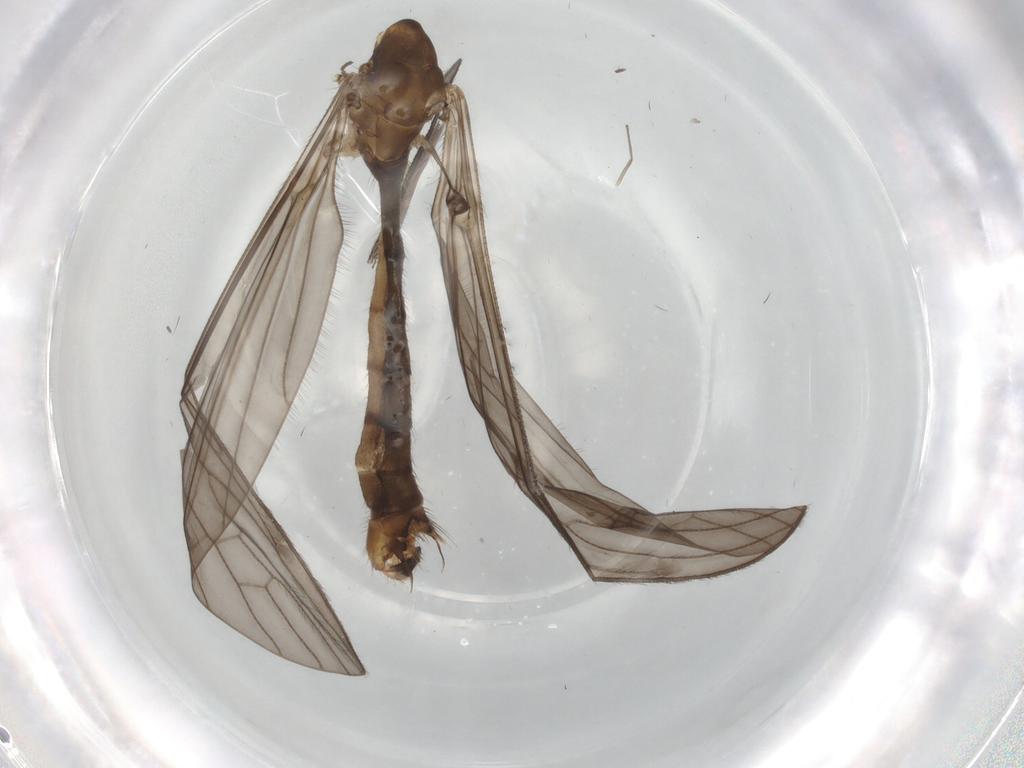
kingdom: Animalia
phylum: Arthropoda
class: Insecta
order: Diptera
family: Limoniidae
